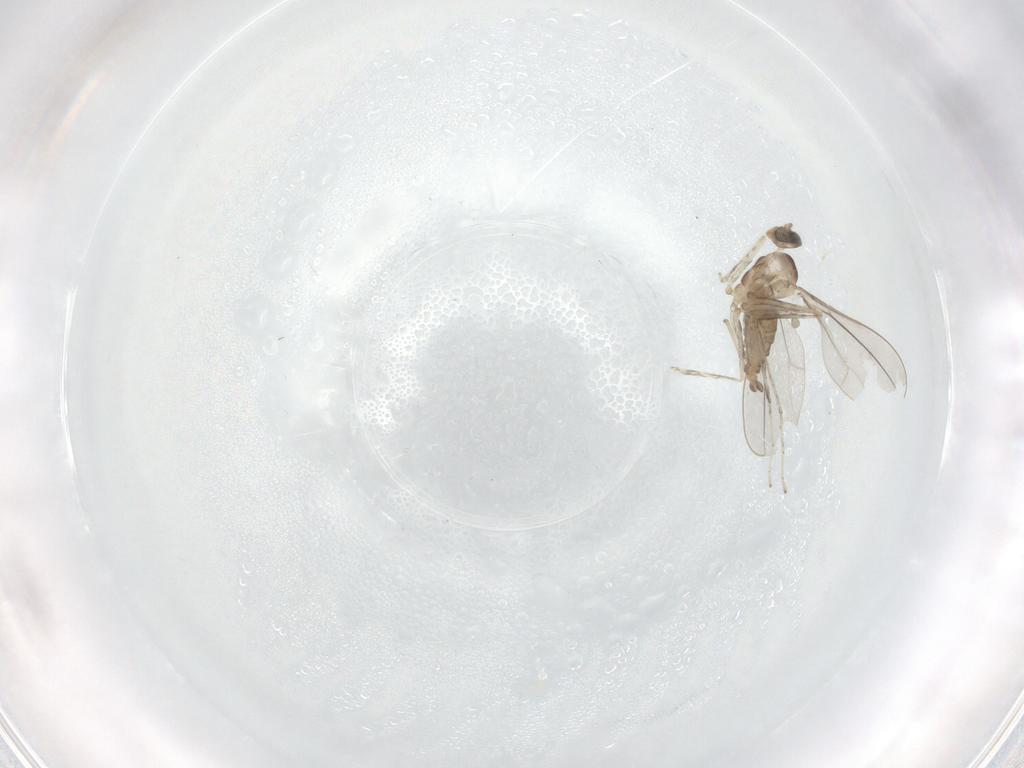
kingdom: Animalia
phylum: Arthropoda
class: Insecta
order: Diptera
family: Cecidomyiidae
